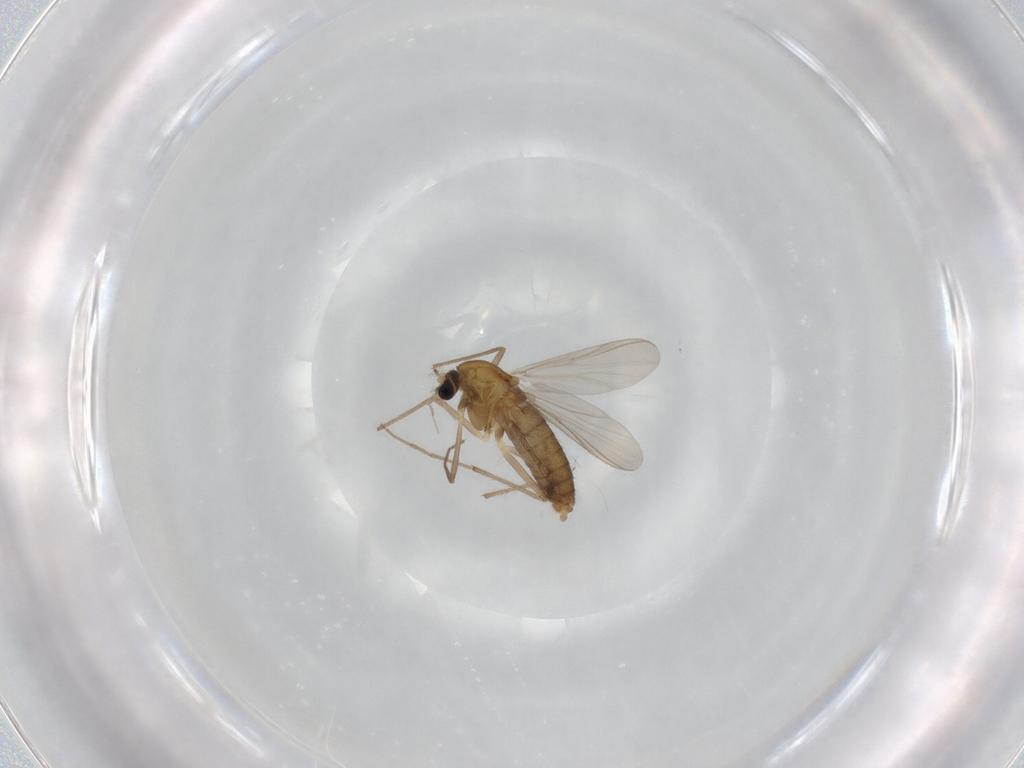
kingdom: Animalia
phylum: Arthropoda
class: Insecta
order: Diptera
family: Chironomidae
